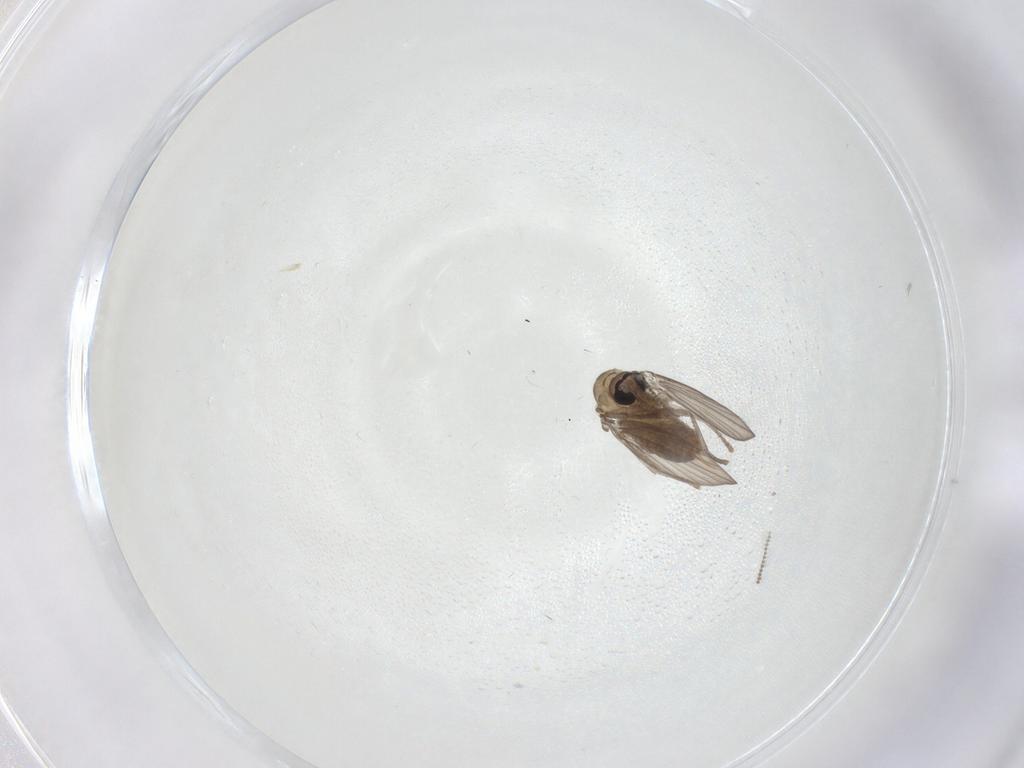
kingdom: Animalia
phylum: Arthropoda
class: Insecta
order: Diptera
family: Psychodidae
